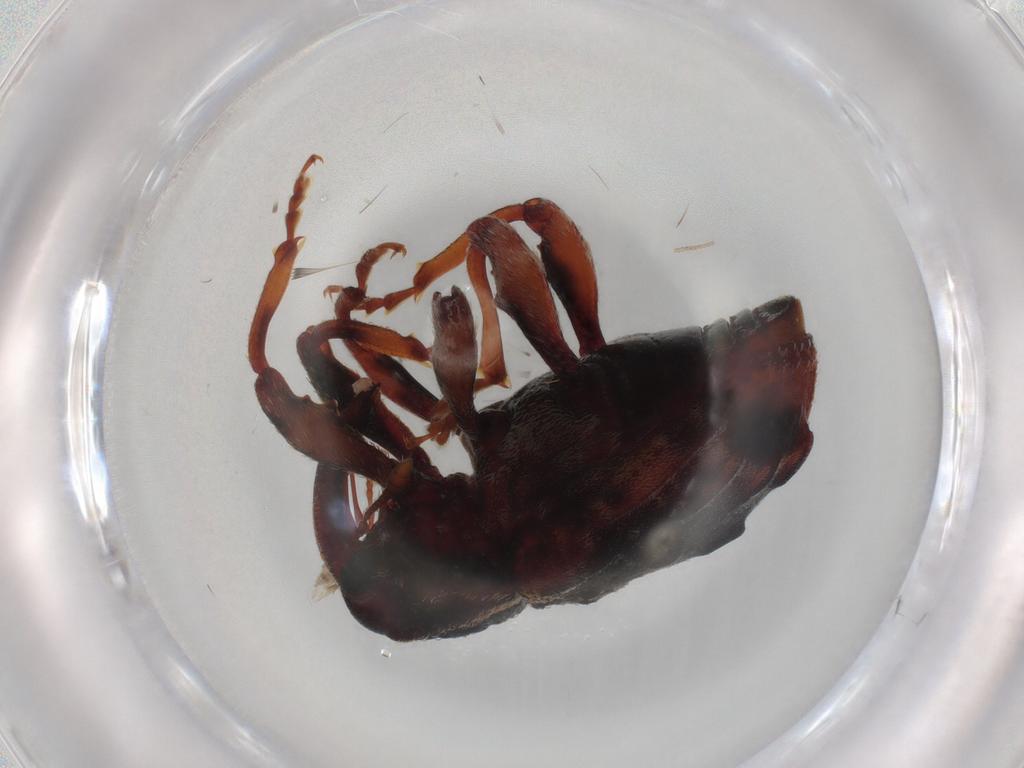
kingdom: Animalia
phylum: Arthropoda
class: Insecta
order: Coleoptera
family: Curculionidae
